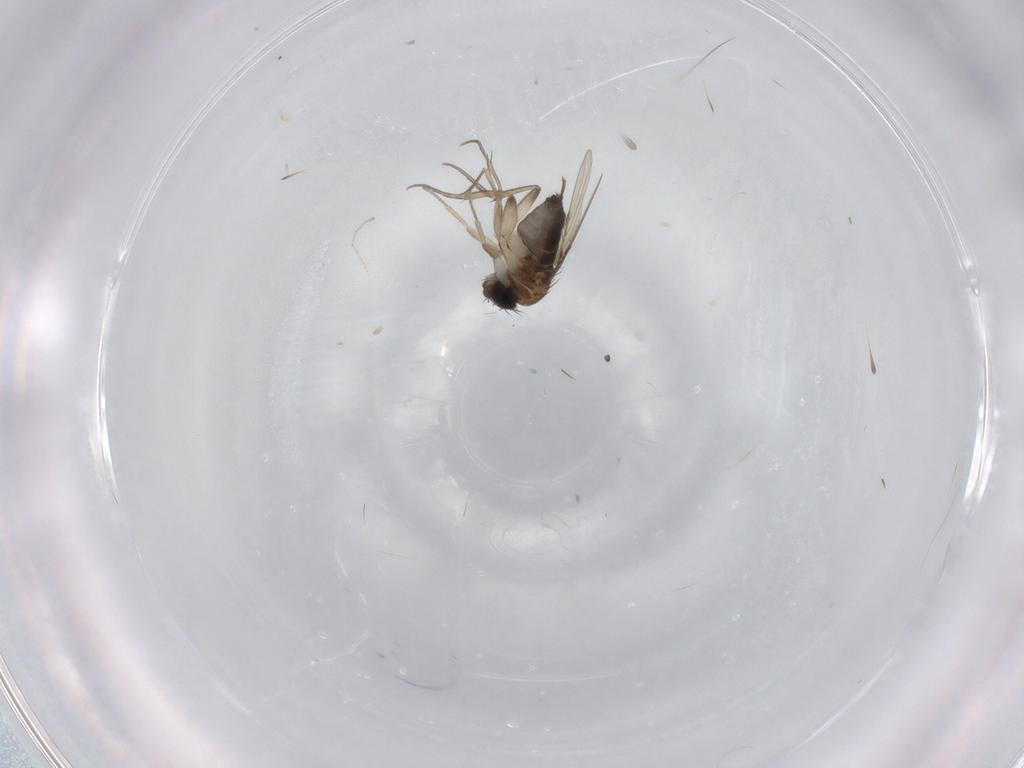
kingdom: Animalia
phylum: Arthropoda
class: Insecta
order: Diptera
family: Phoridae
